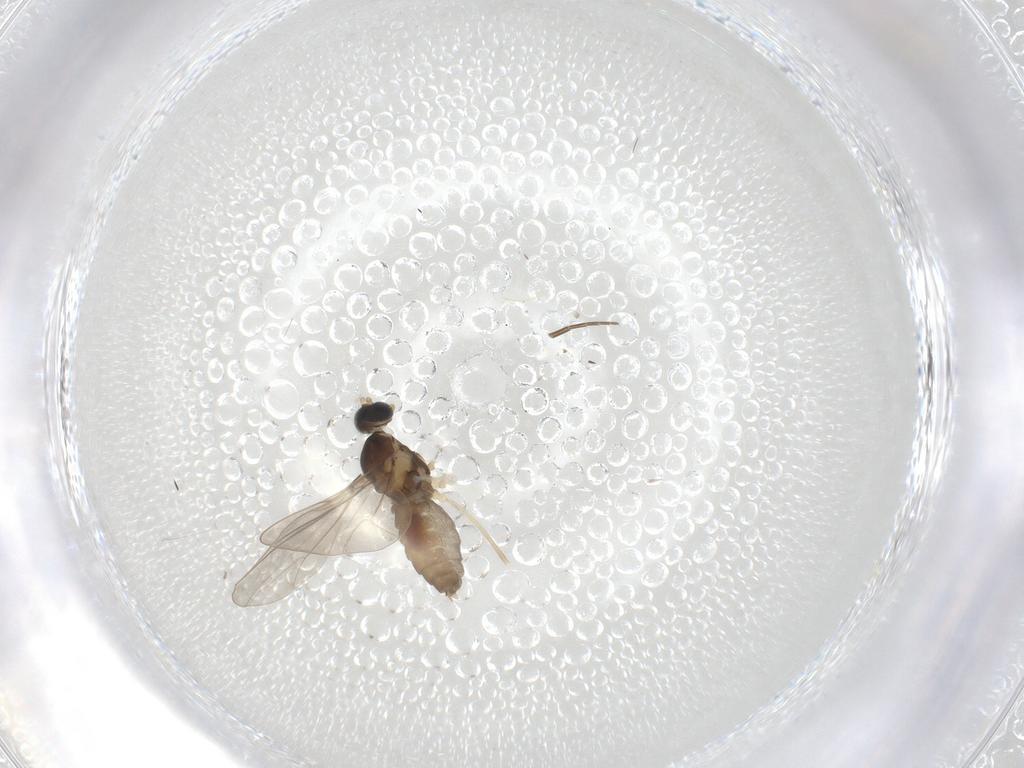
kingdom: Animalia
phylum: Arthropoda
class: Insecta
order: Diptera
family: Cecidomyiidae
